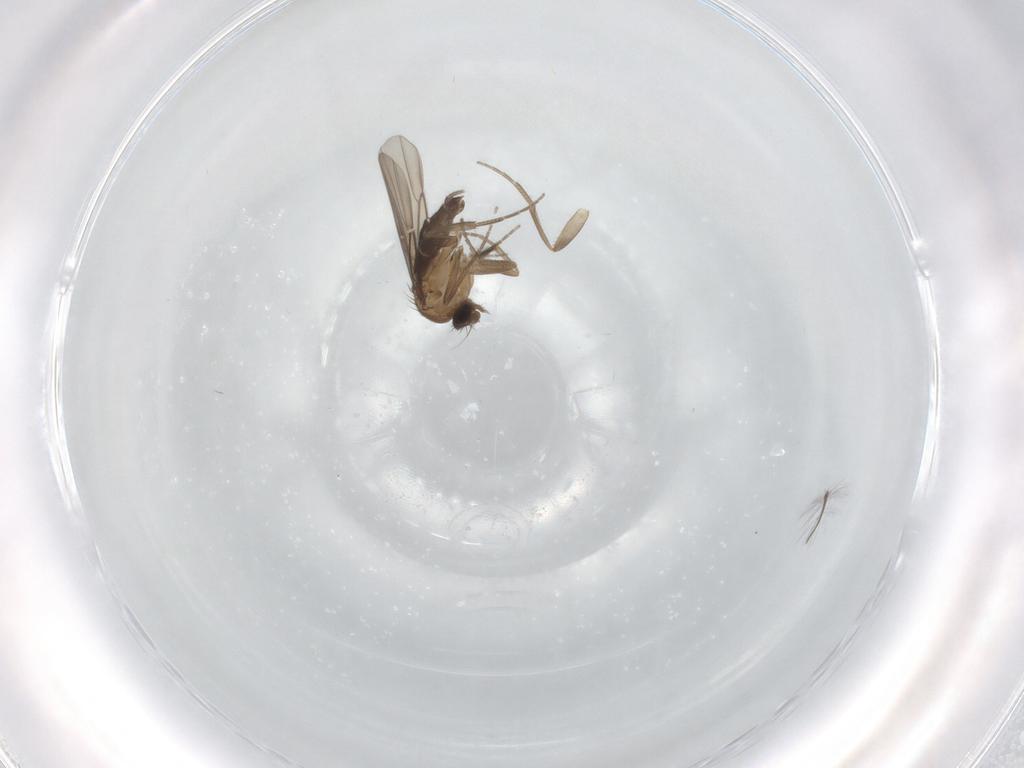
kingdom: Animalia
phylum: Arthropoda
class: Insecta
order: Diptera
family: Phoridae
